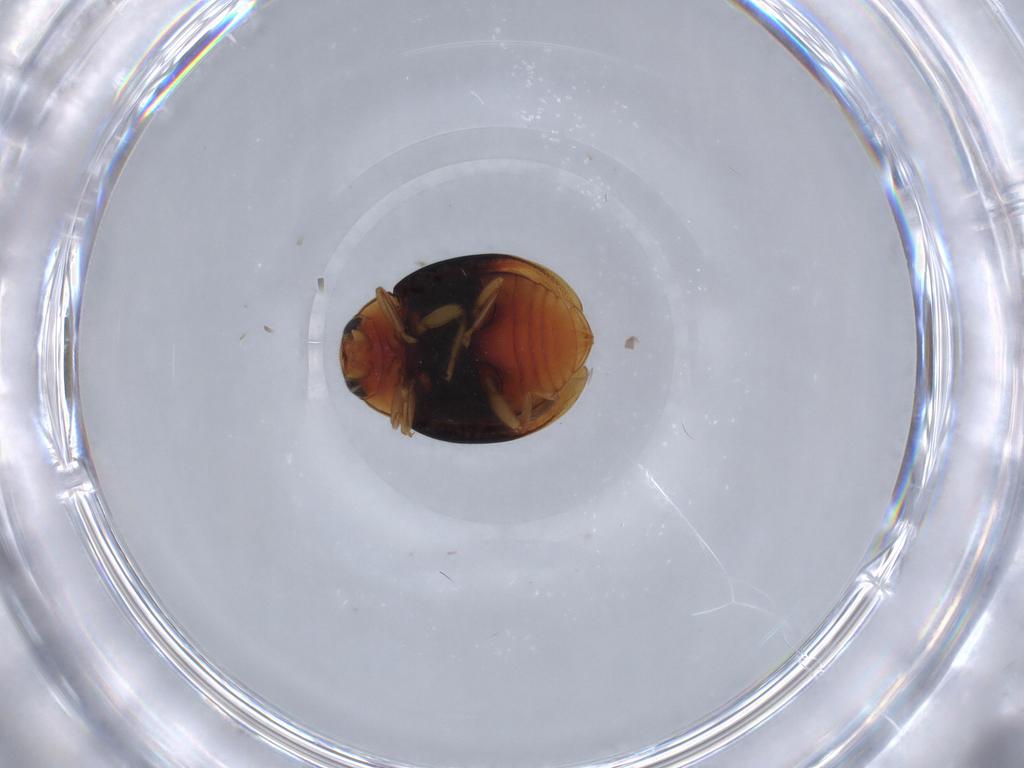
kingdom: Animalia
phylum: Arthropoda
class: Insecta
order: Coleoptera
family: Coccinellidae
